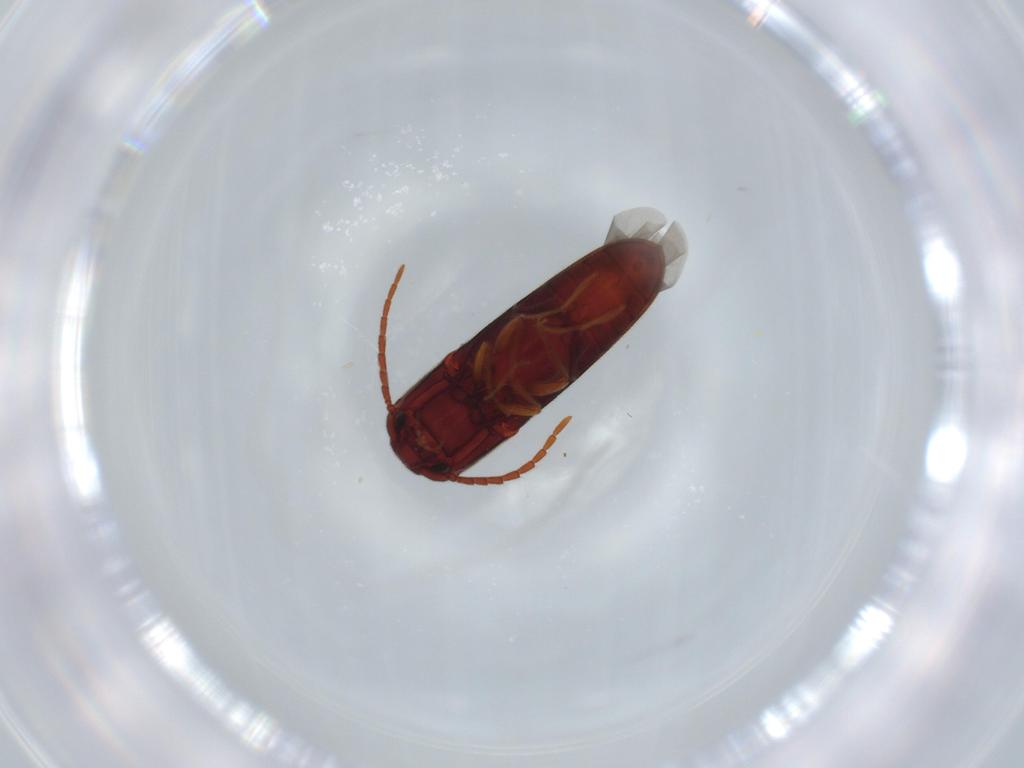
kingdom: Animalia
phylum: Arthropoda
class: Insecta
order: Coleoptera
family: Eucnemidae
